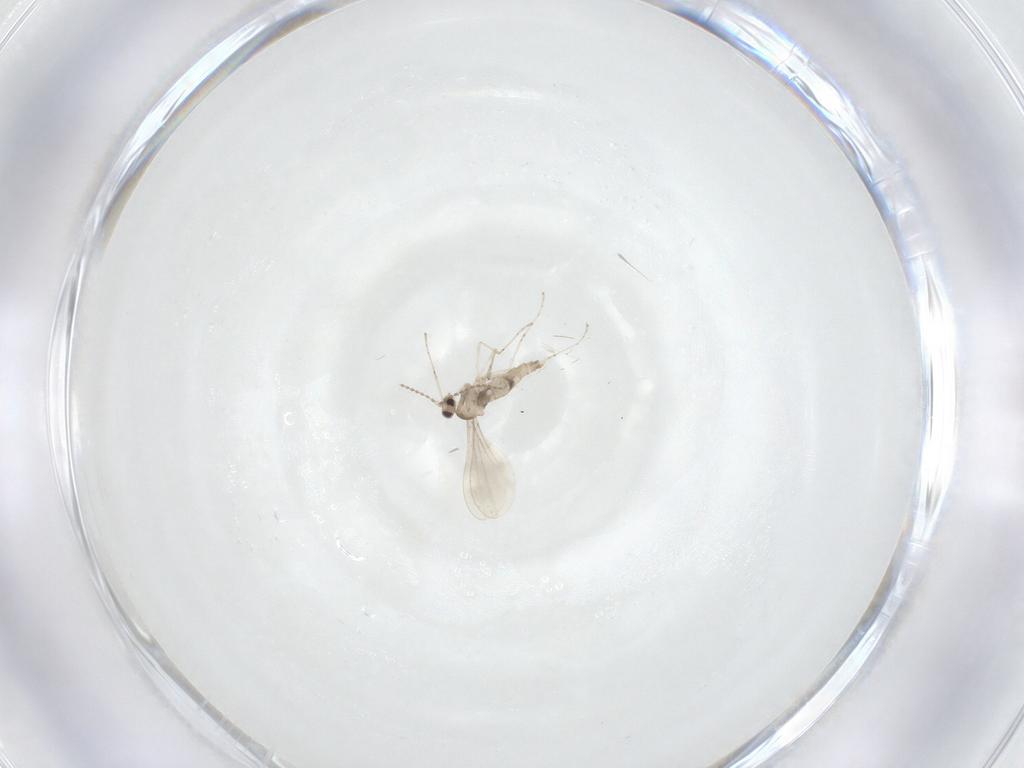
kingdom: Animalia
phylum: Arthropoda
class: Insecta
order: Diptera
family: Cecidomyiidae
